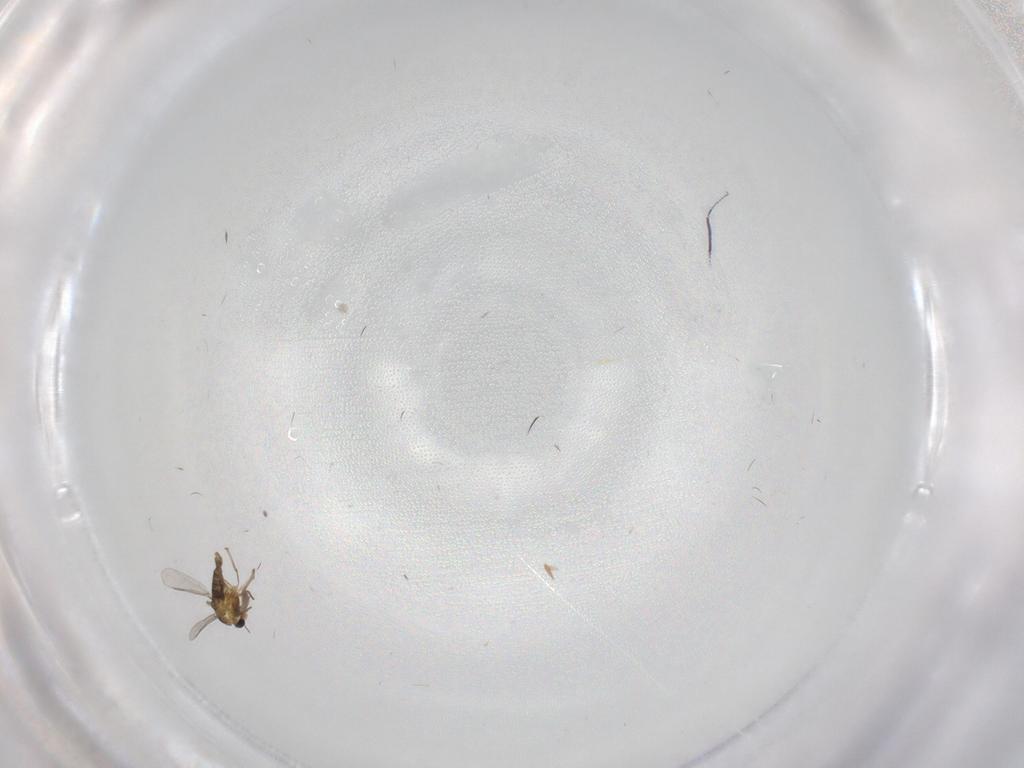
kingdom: Animalia
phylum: Arthropoda
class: Insecta
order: Diptera
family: Chironomidae
